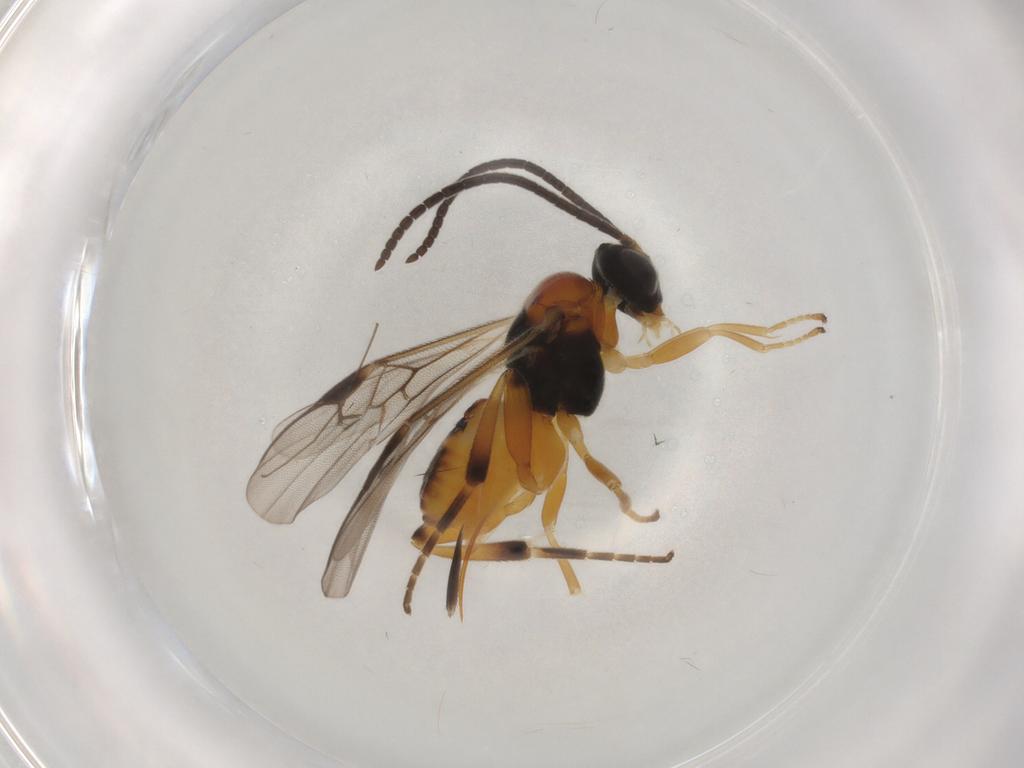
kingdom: Animalia
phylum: Arthropoda
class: Insecta
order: Hymenoptera
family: Braconidae
